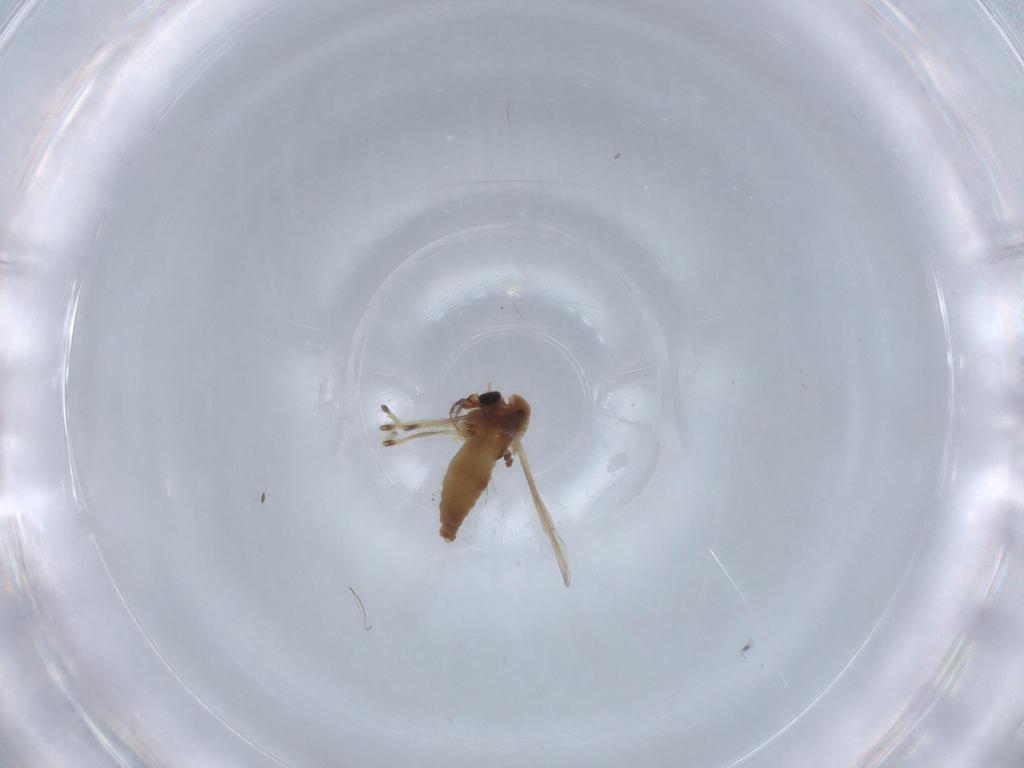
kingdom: Animalia
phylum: Arthropoda
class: Insecta
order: Diptera
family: Chironomidae
